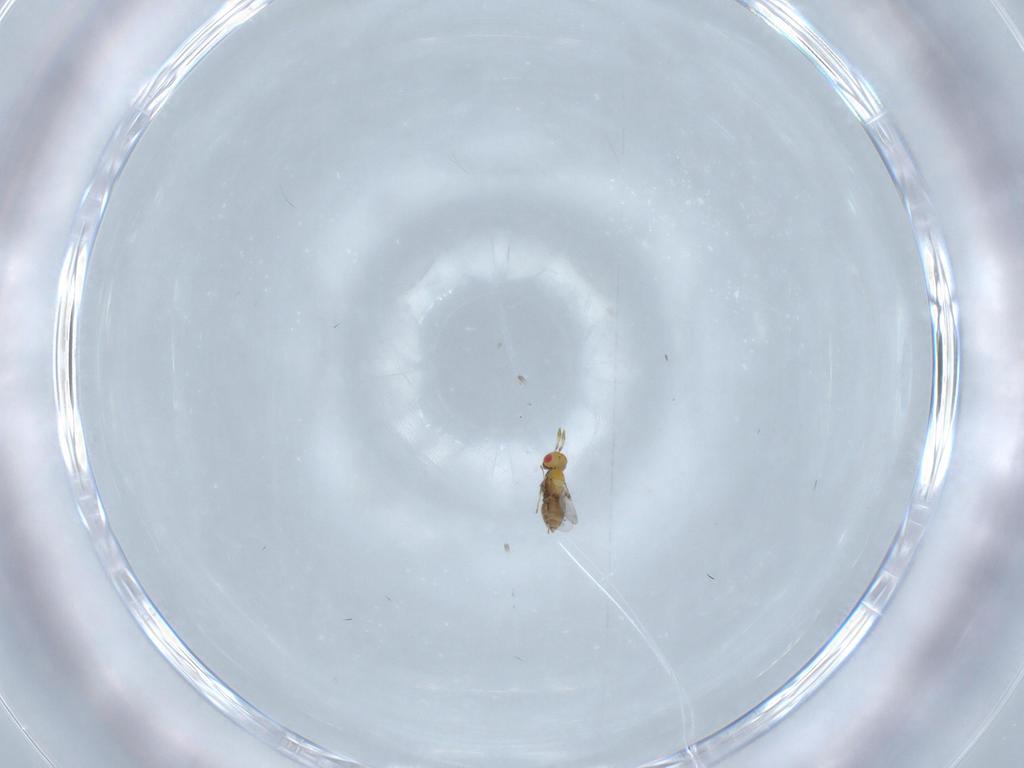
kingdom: Animalia
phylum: Arthropoda
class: Insecta
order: Hymenoptera
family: Trichogrammatidae
